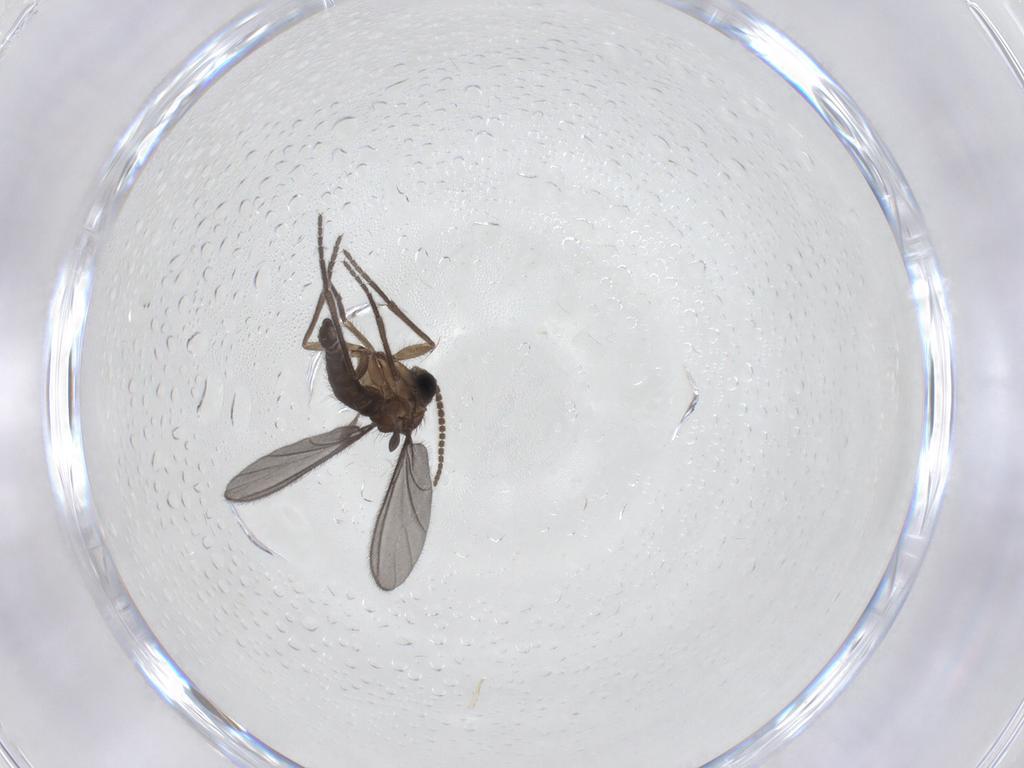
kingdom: Animalia
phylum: Arthropoda
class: Insecta
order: Diptera
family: Sciaridae
